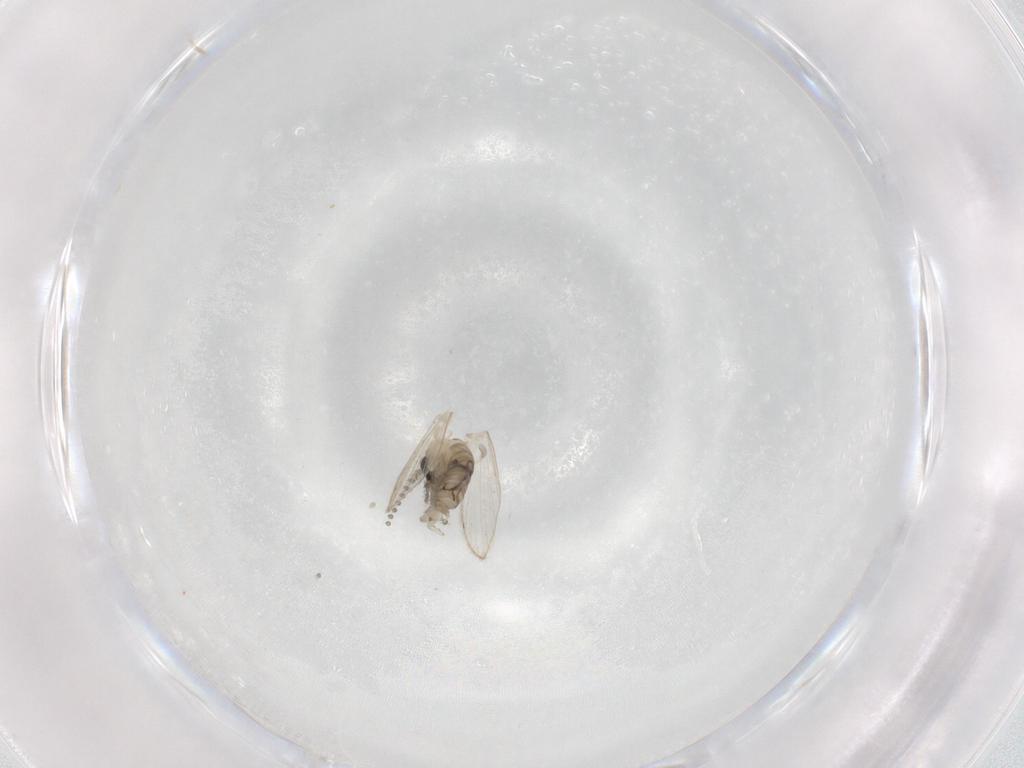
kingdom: Animalia
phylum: Arthropoda
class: Insecta
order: Diptera
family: Psychodidae
